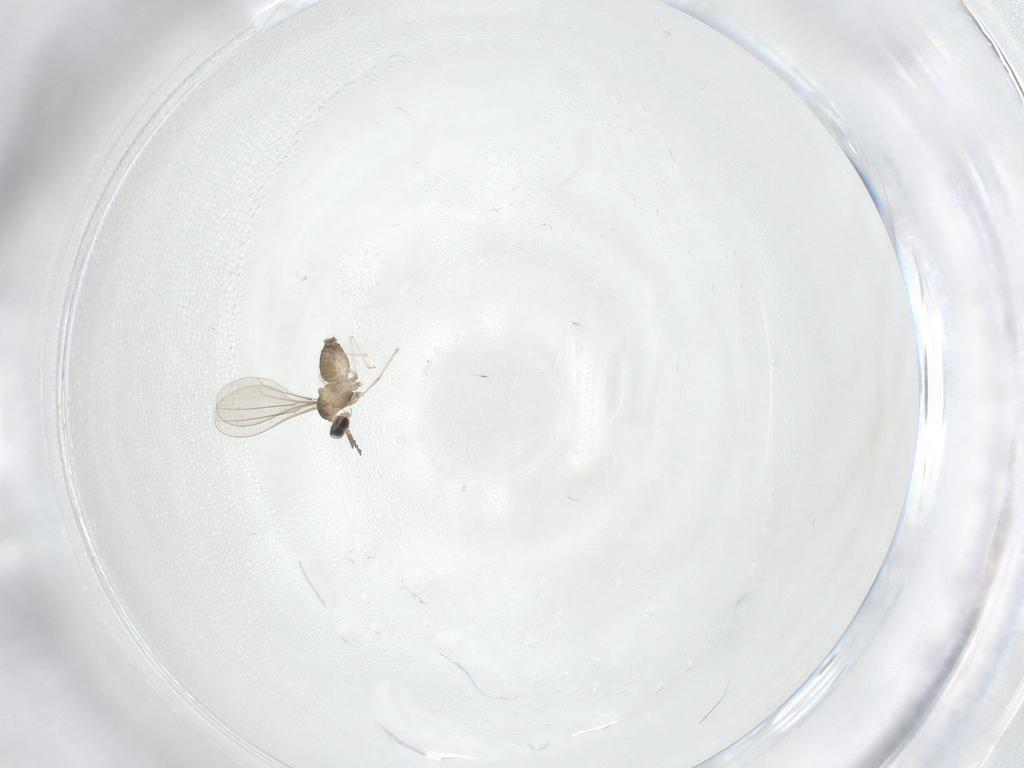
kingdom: Animalia
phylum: Arthropoda
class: Insecta
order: Diptera
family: Cecidomyiidae
